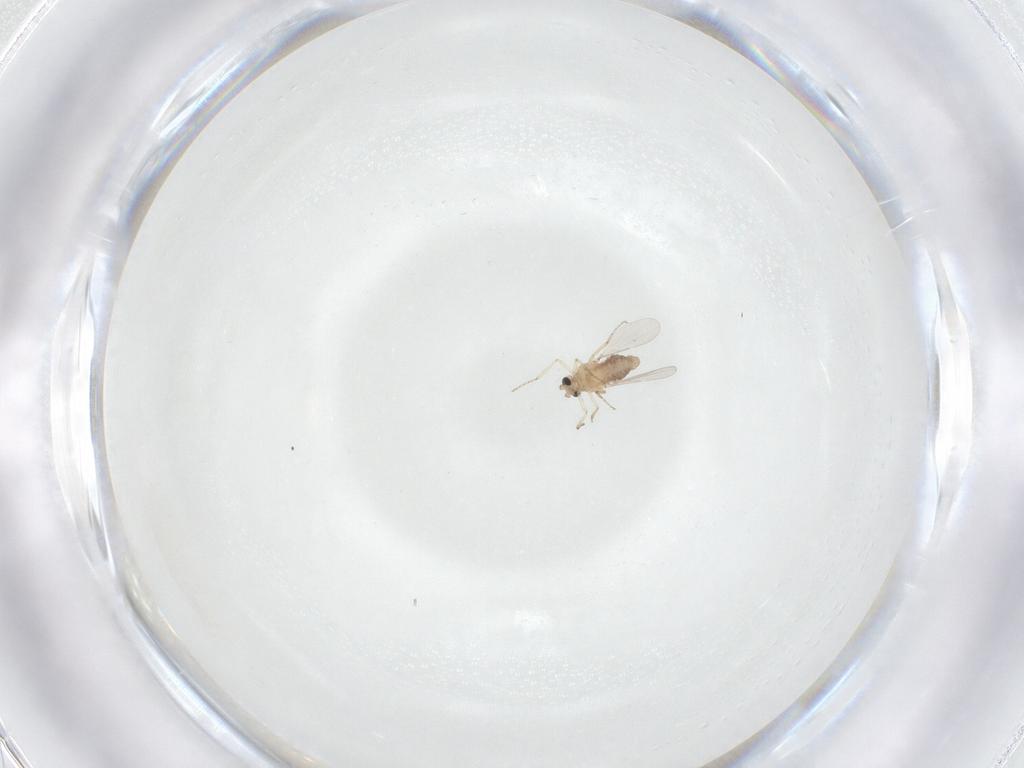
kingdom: Animalia
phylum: Arthropoda
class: Insecta
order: Diptera
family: Ceratopogonidae
